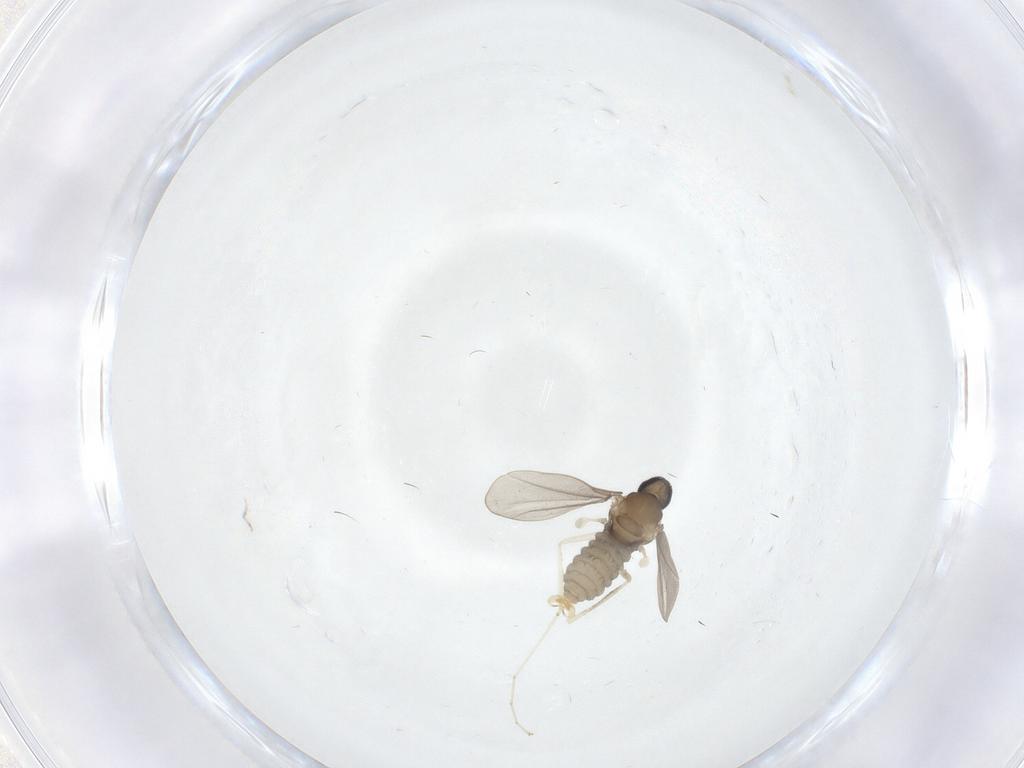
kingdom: Animalia
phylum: Arthropoda
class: Insecta
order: Diptera
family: Cecidomyiidae
